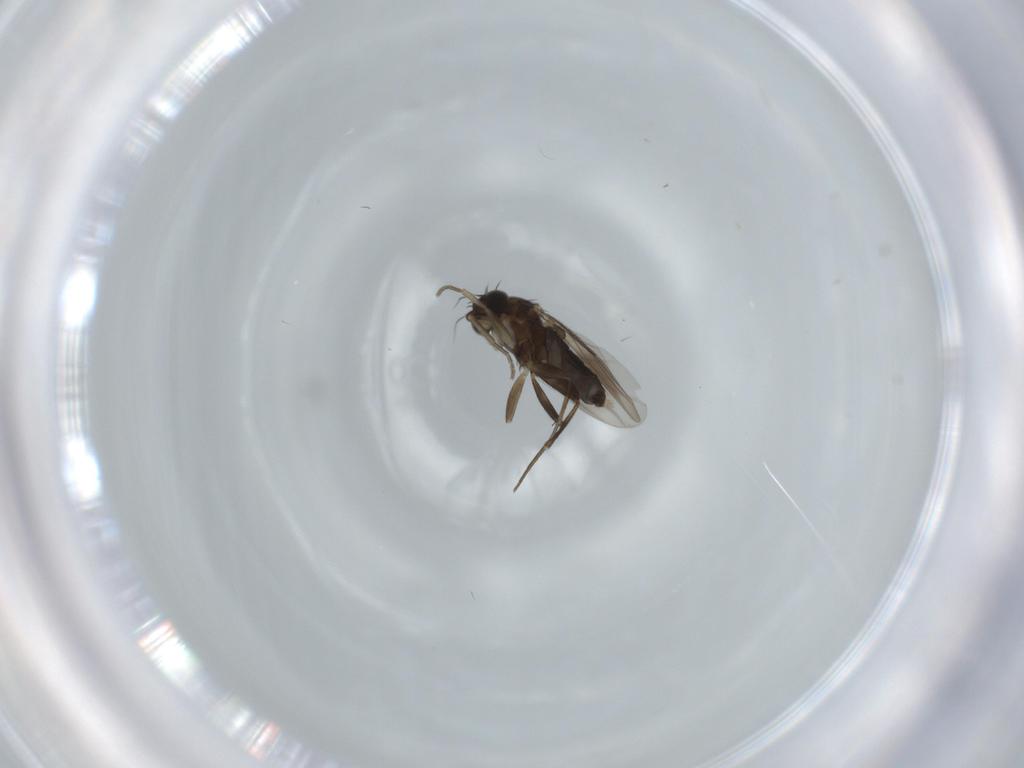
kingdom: Animalia
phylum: Arthropoda
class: Insecta
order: Diptera
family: Phoridae
